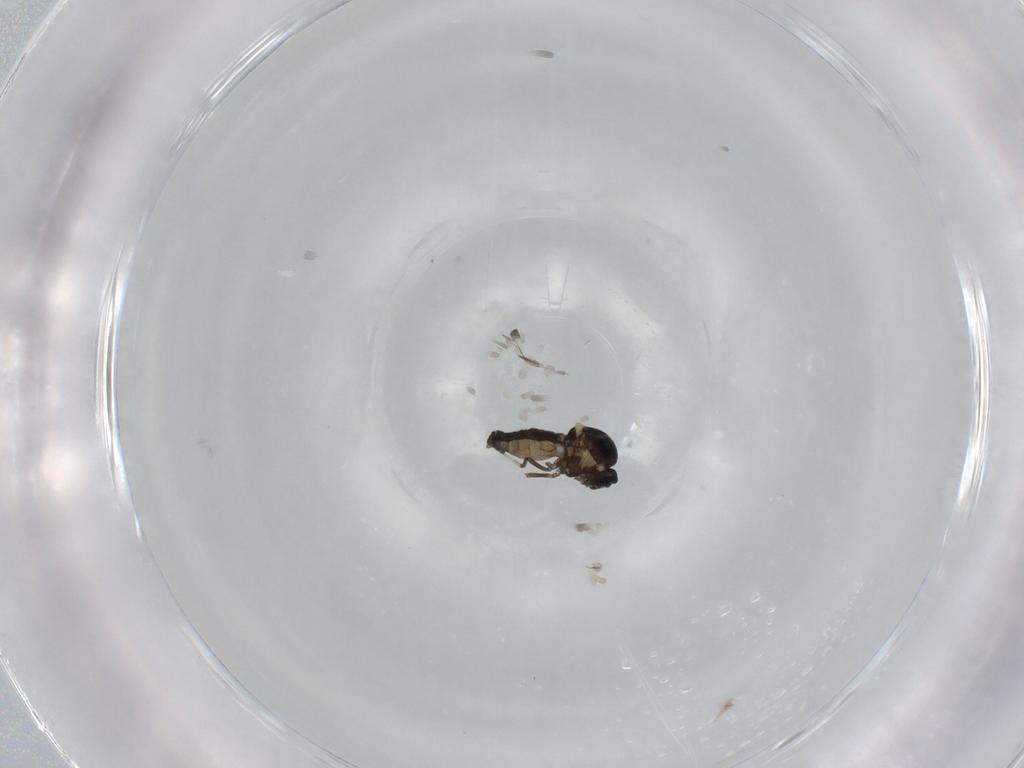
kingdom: Animalia
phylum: Arthropoda
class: Insecta
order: Diptera
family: Ceratopogonidae
